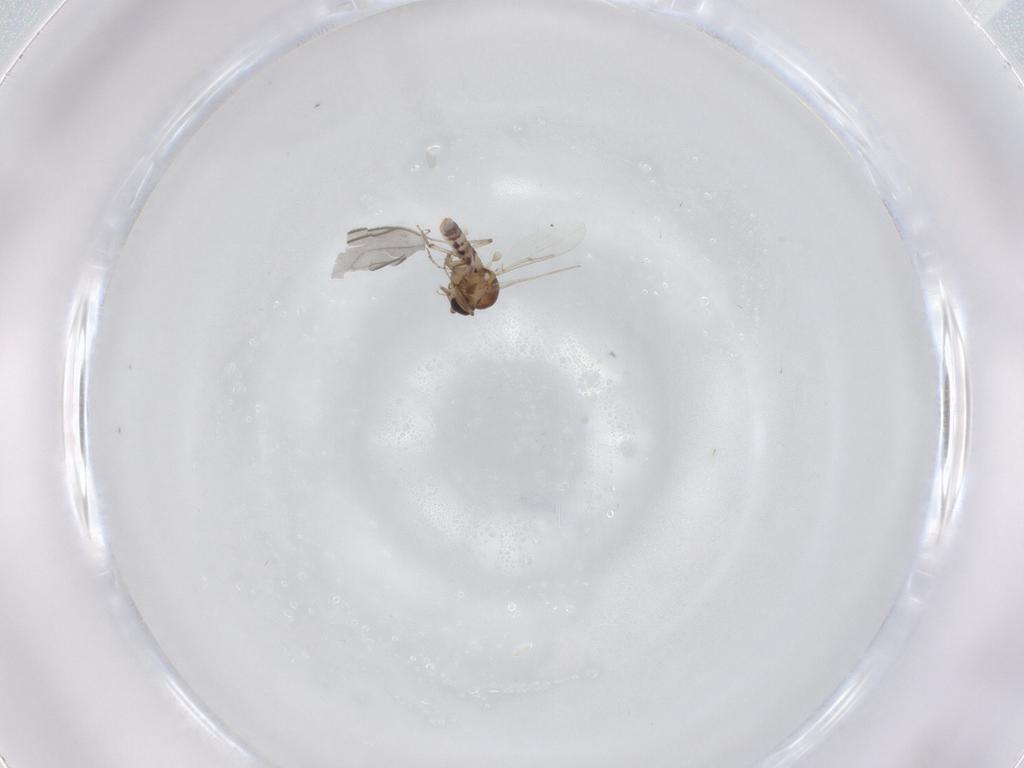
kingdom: Animalia
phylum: Arthropoda
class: Insecta
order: Diptera
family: Ceratopogonidae
